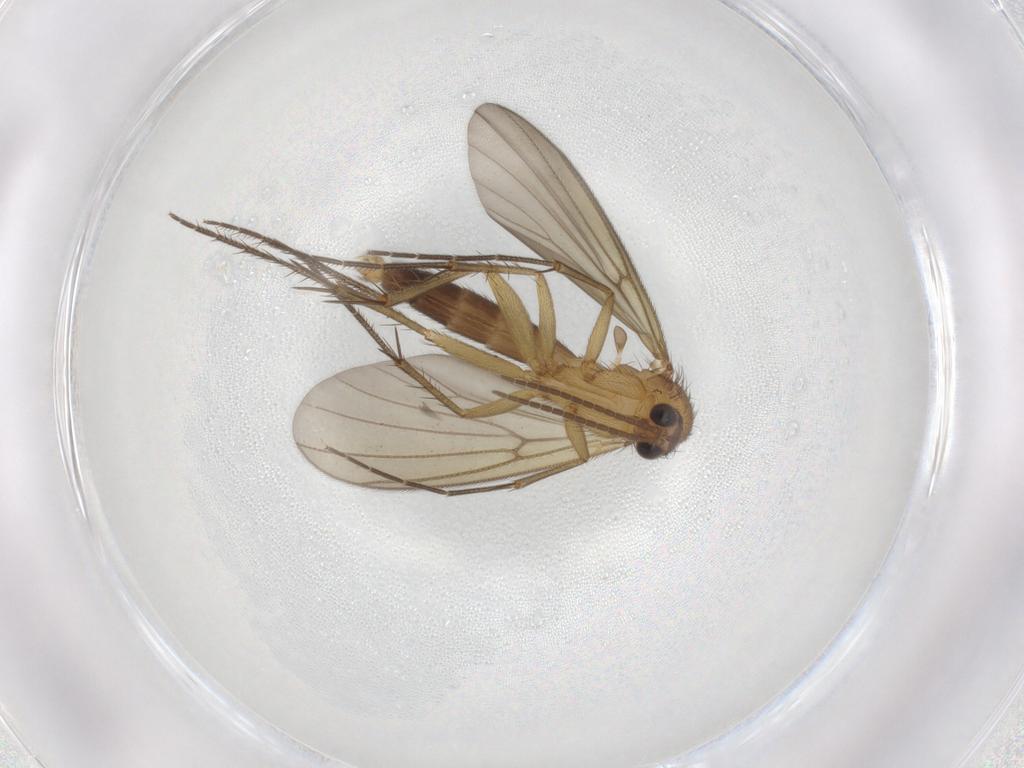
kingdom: Animalia
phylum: Arthropoda
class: Insecta
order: Diptera
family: Mycetophilidae
